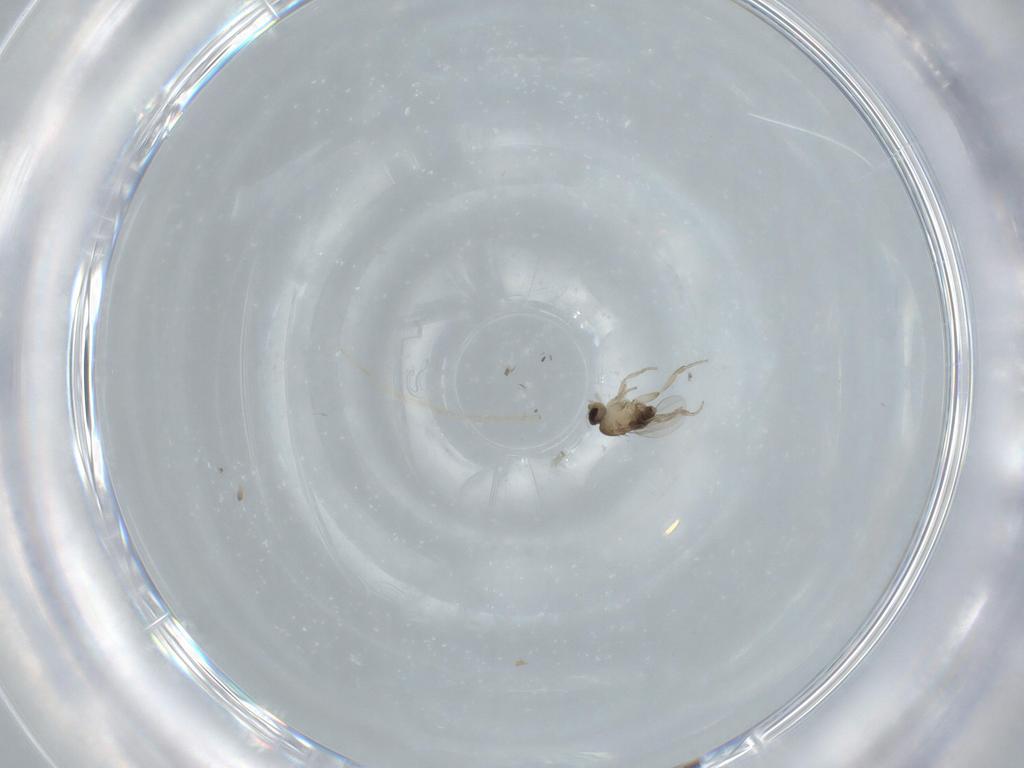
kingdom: Animalia
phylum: Arthropoda
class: Insecta
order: Diptera
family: Phoridae
